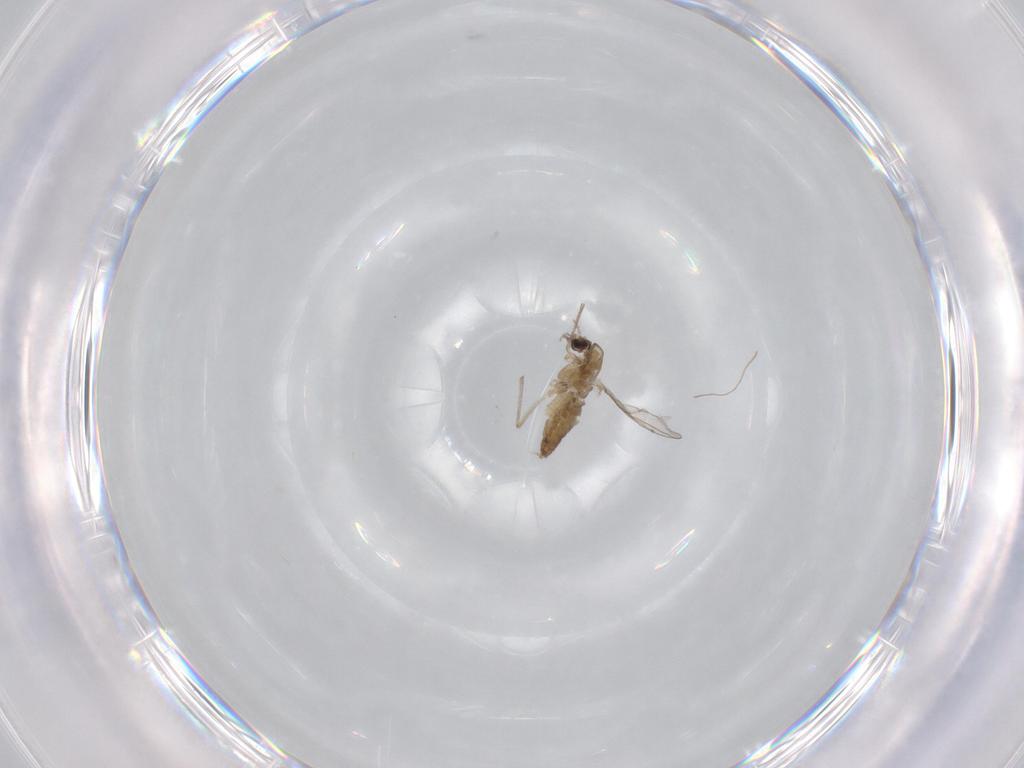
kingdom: Animalia
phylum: Arthropoda
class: Insecta
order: Diptera
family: Chironomidae
